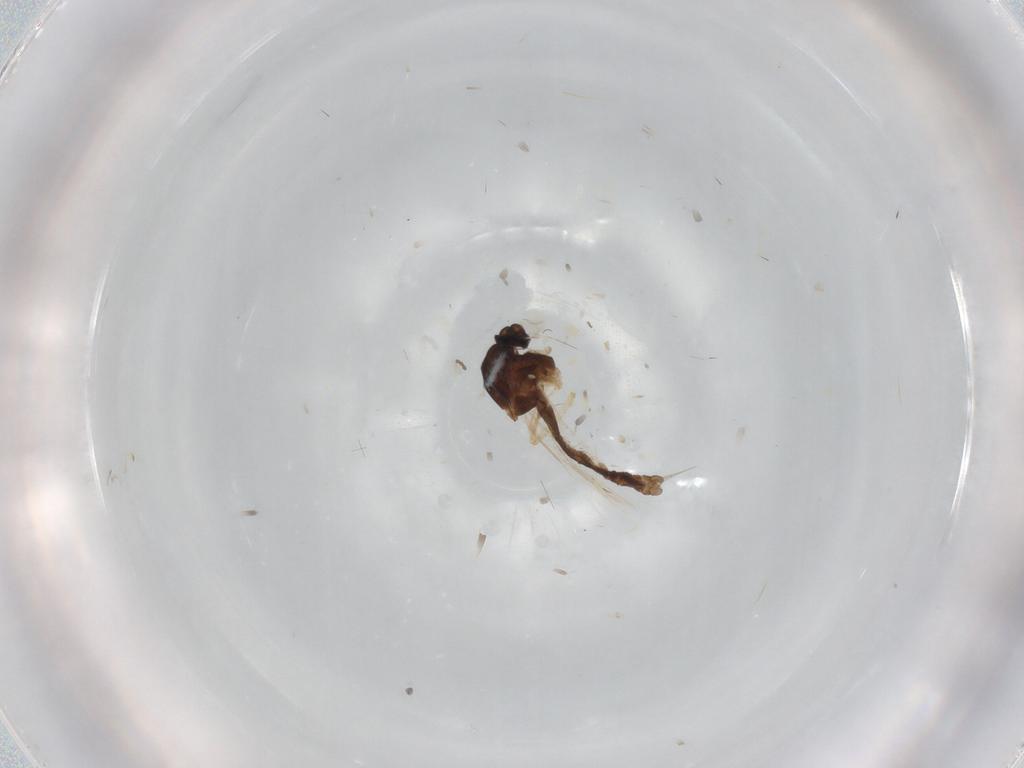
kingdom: Animalia
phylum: Arthropoda
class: Insecta
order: Diptera
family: Ceratopogonidae
